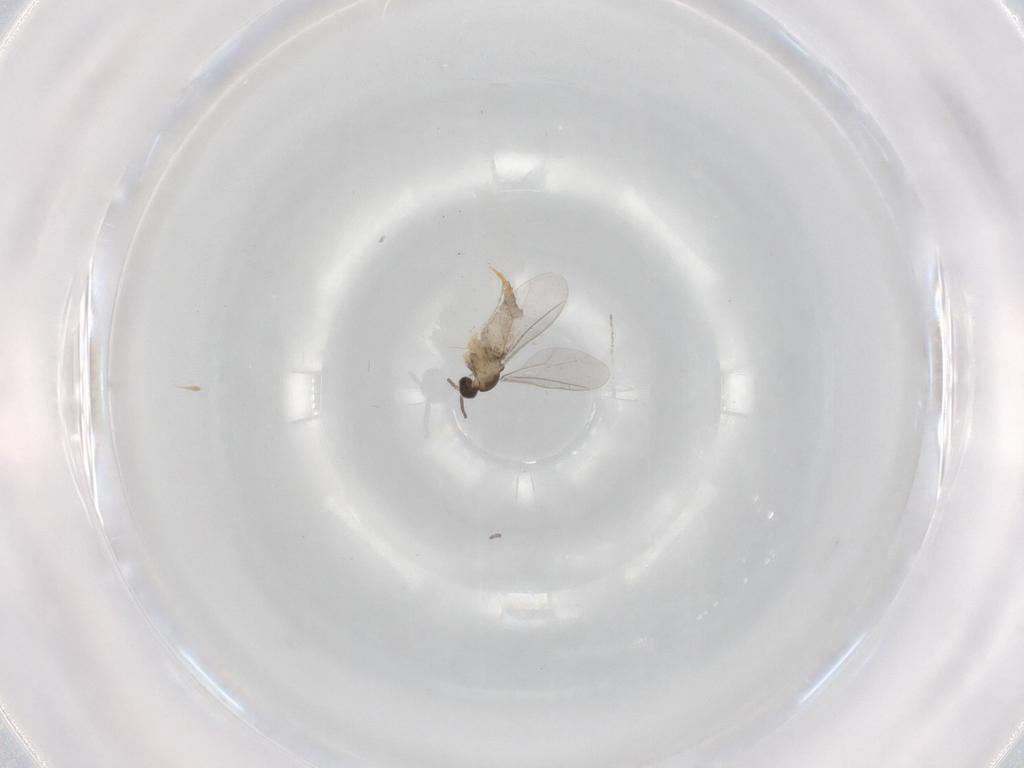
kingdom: Animalia
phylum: Arthropoda
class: Insecta
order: Diptera
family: Cecidomyiidae
